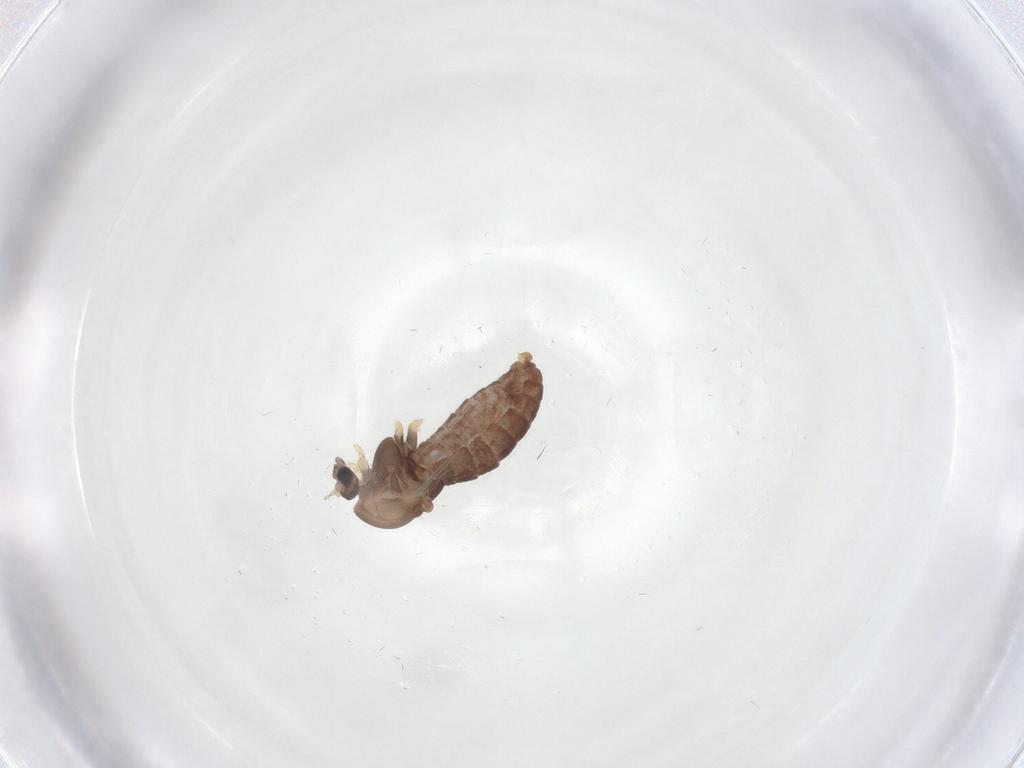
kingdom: Animalia
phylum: Arthropoda
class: Insecta
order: Diptera
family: Chironomidae
